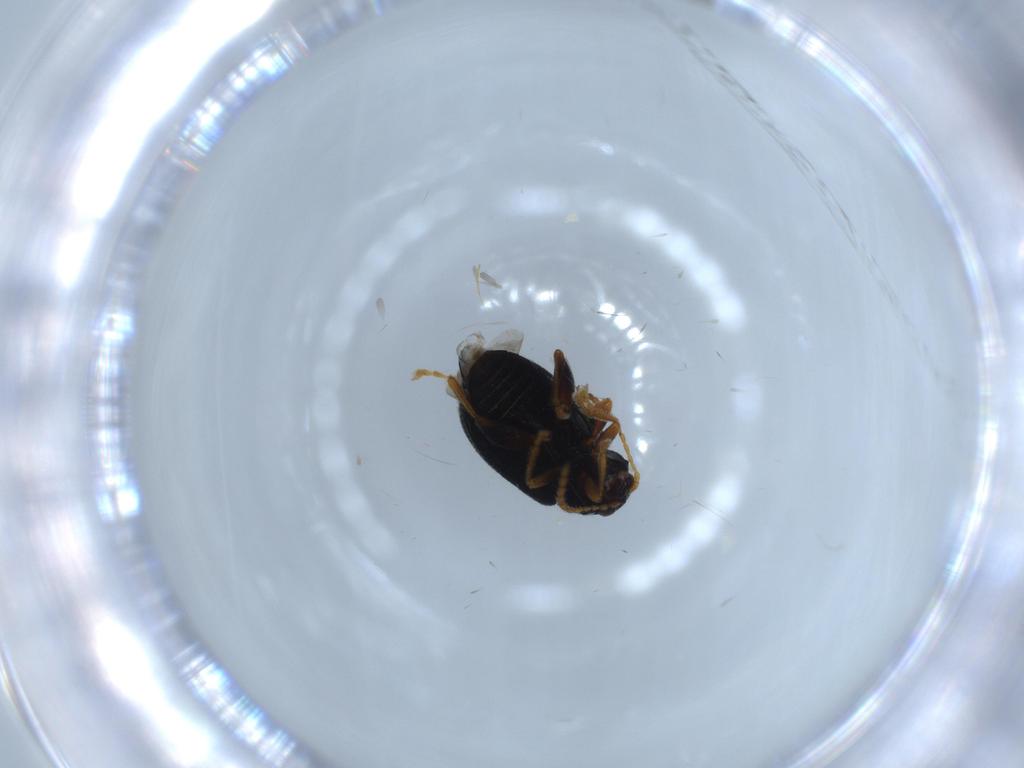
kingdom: Animalia
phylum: Arthropoda
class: Insecta
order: Coleoptera
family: Chrysomelidae
